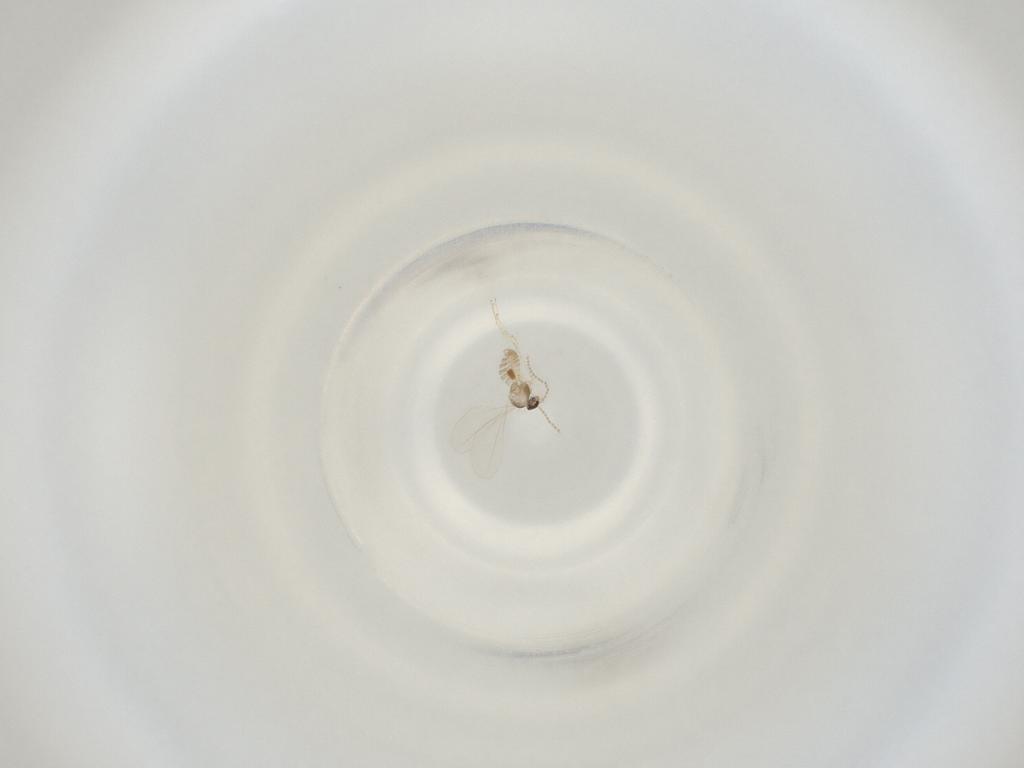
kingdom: Animalia
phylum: Arthropoda
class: Insecta
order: Diptera
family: Cecidomyiidae
